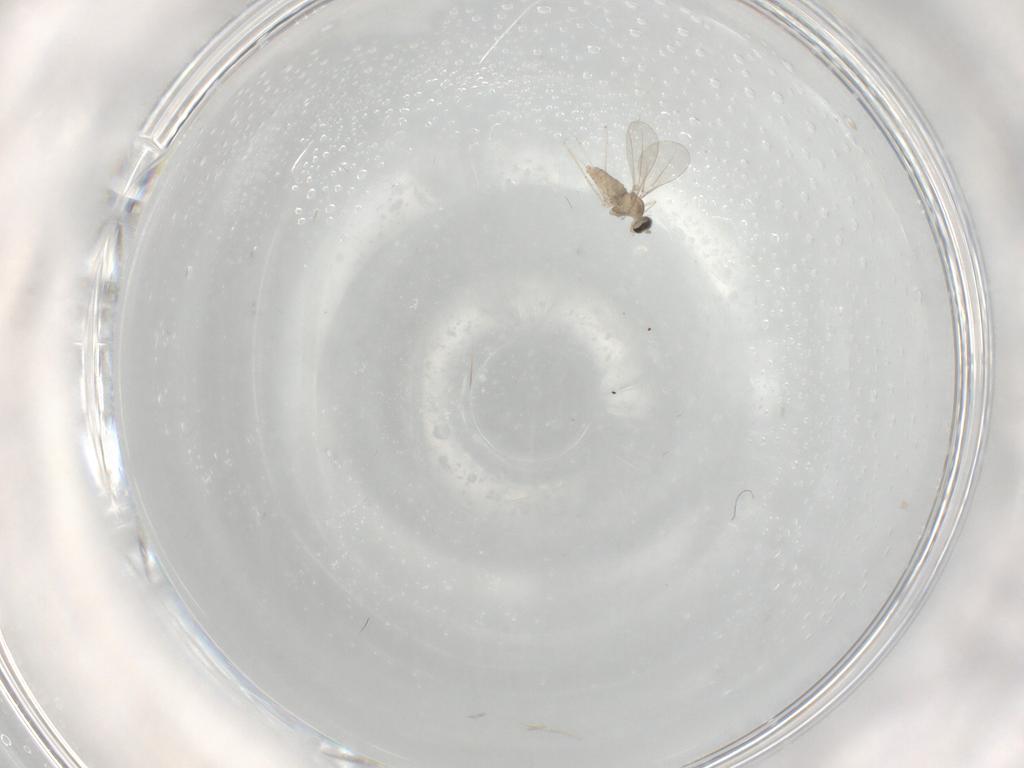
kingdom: Animalia
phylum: Arthropoda
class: Insecta
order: Diptera
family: Cecidomyiidae
